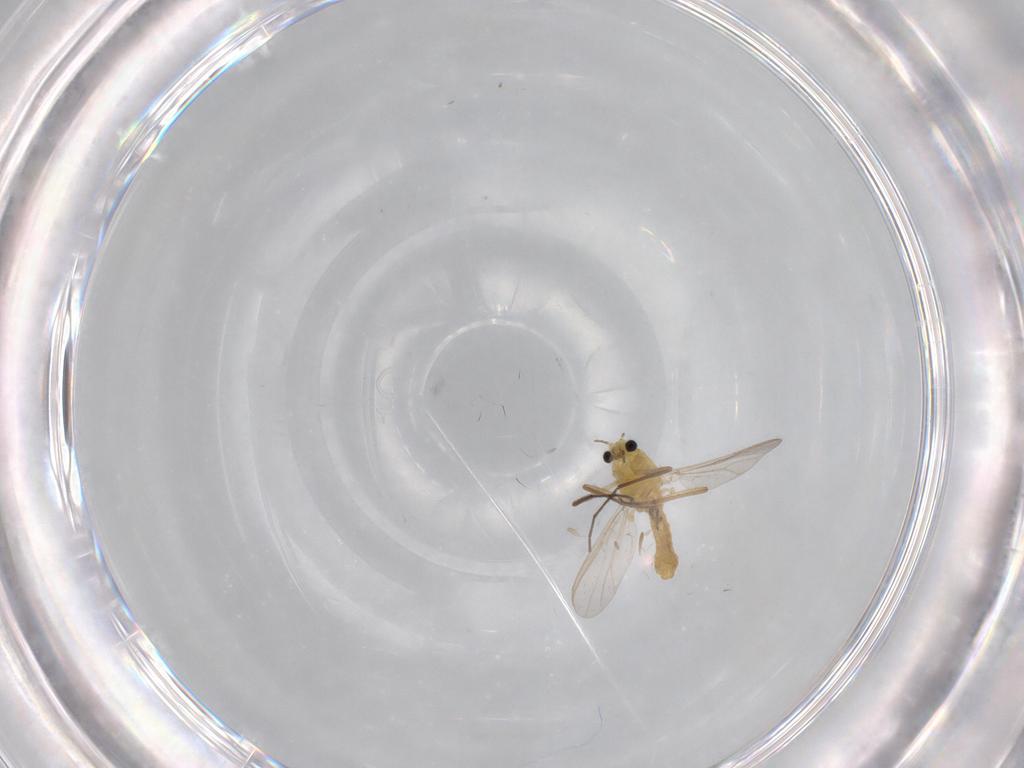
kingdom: Animalia
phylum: Arthropoda
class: Insecta
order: Diptera
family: Chironomidae
